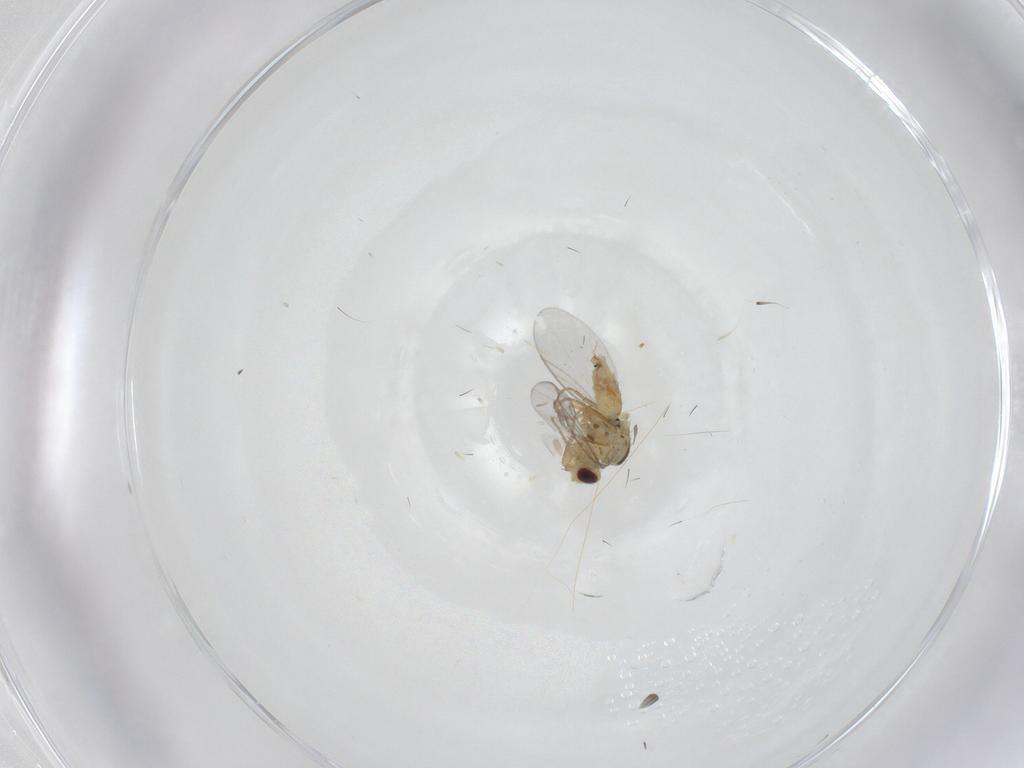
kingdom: Animalia
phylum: Arthropoda
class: Insecta
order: Diptera
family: Agromyzidae
